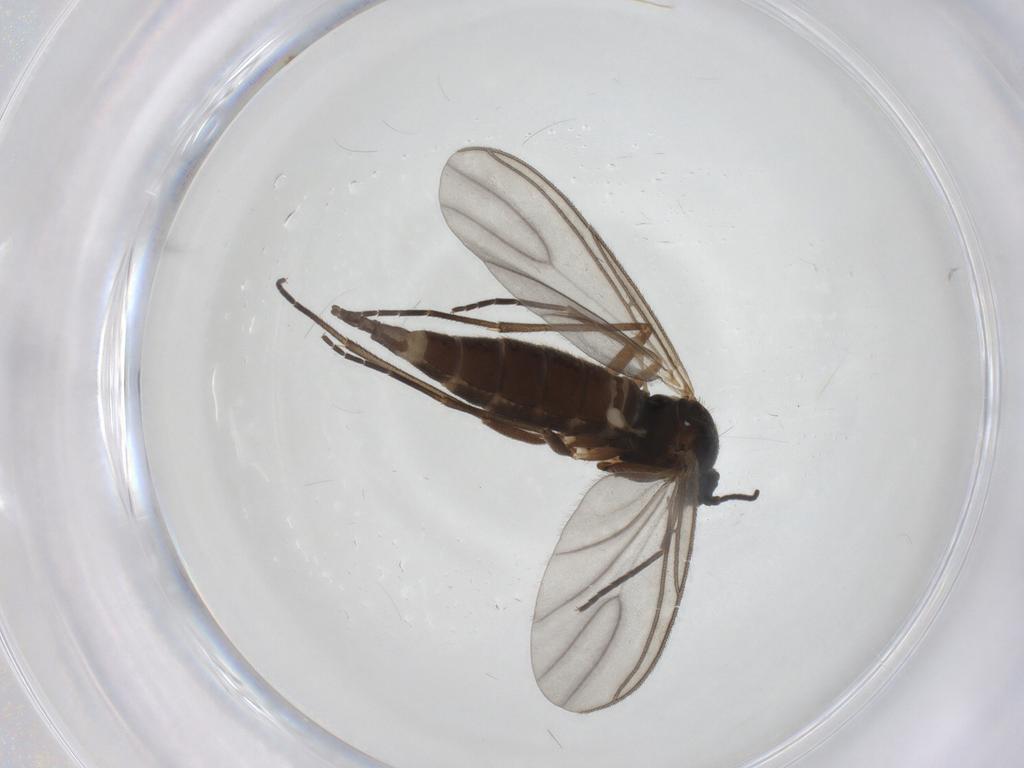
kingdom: Animalia
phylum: Arthropoda
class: Insecta
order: Diptera
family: Sciaridae
